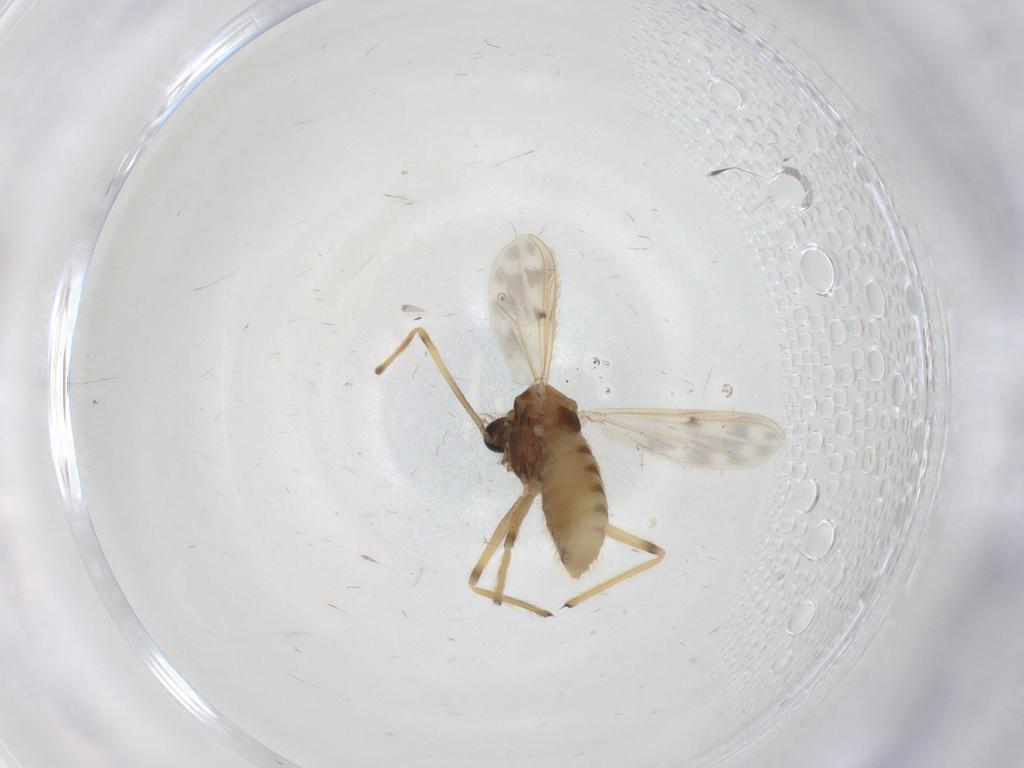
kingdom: Animalia
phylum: Arthropoda
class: Insecta
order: Diptera
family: Chironomidae
